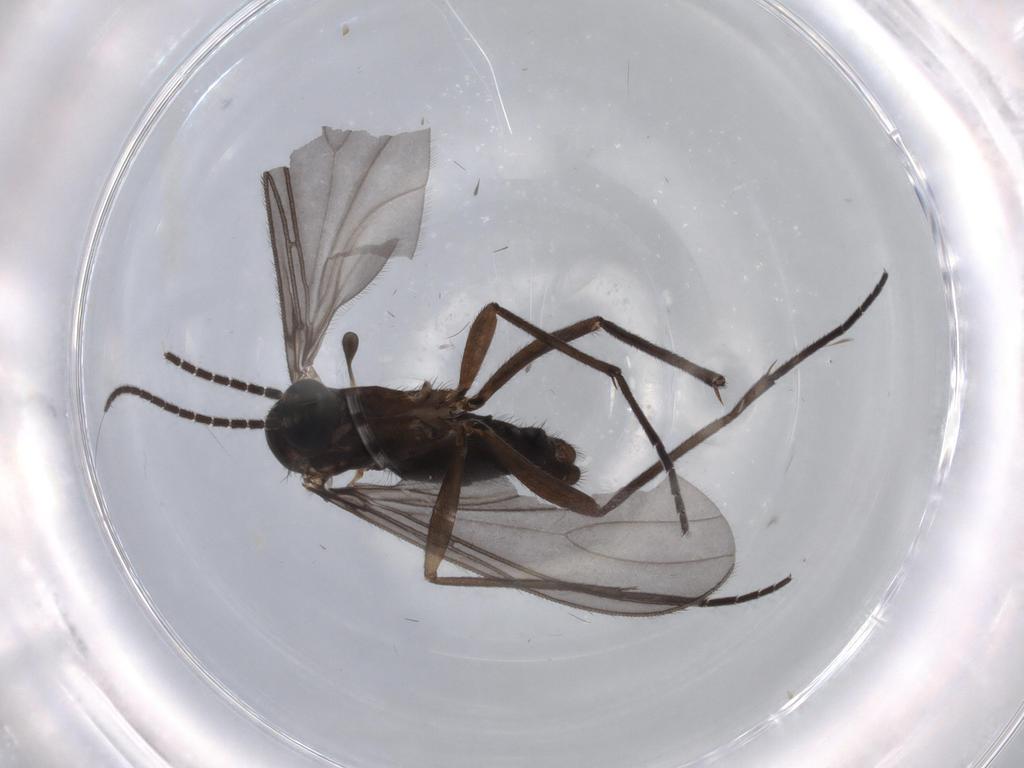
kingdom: Animalia
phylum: Arthropoda
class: Insecta
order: Diptera
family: Sciaridae
